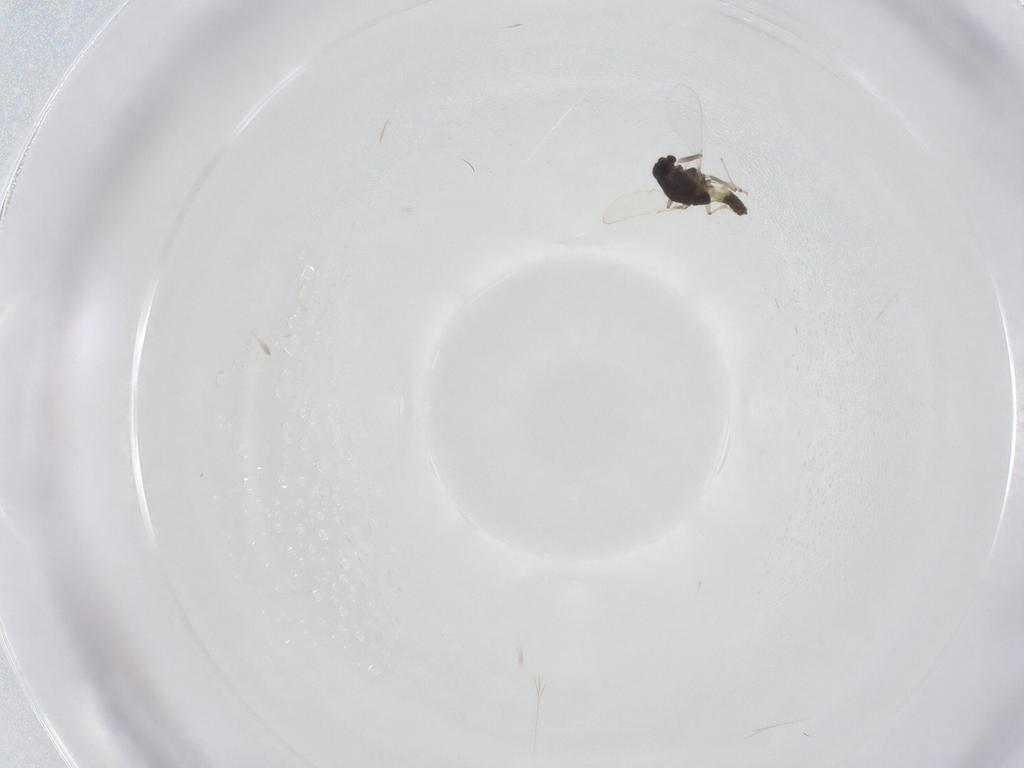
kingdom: Animalia
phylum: Arthropoda
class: Insecta
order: Diptera
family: Chironomidae
